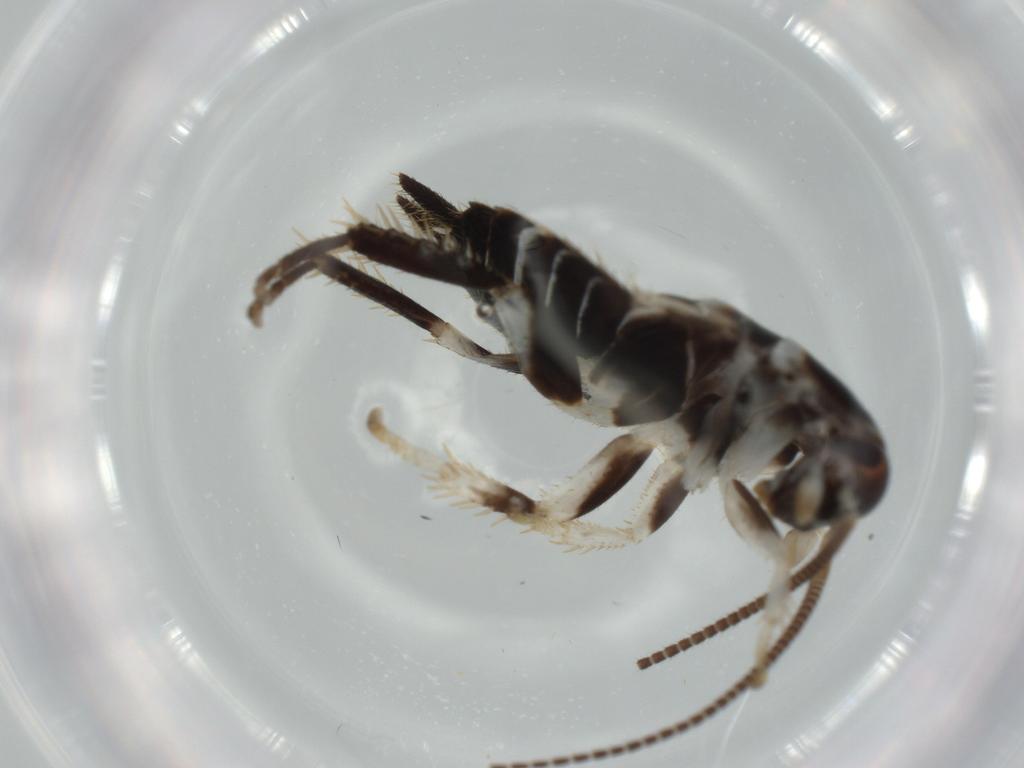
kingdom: Animalia
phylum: Arthropoda
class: Insecta
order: Blattodea
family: Ectobiidae
